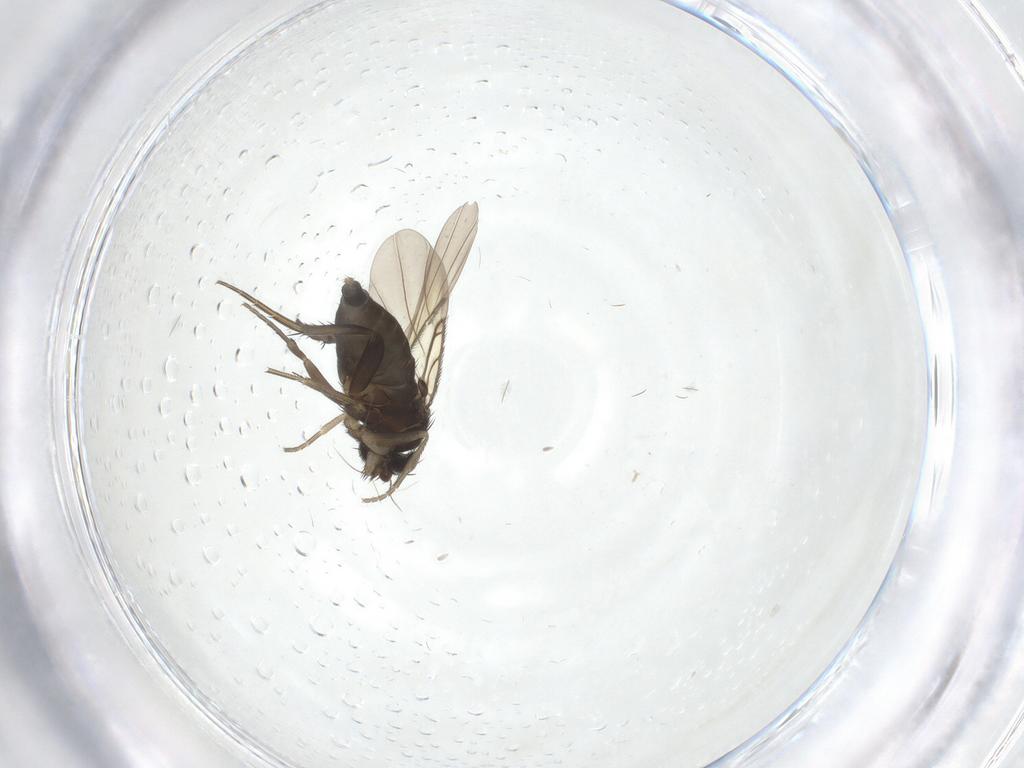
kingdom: Animalia
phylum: Arthropoda
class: Insecta
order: Diptera
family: Phoridae
